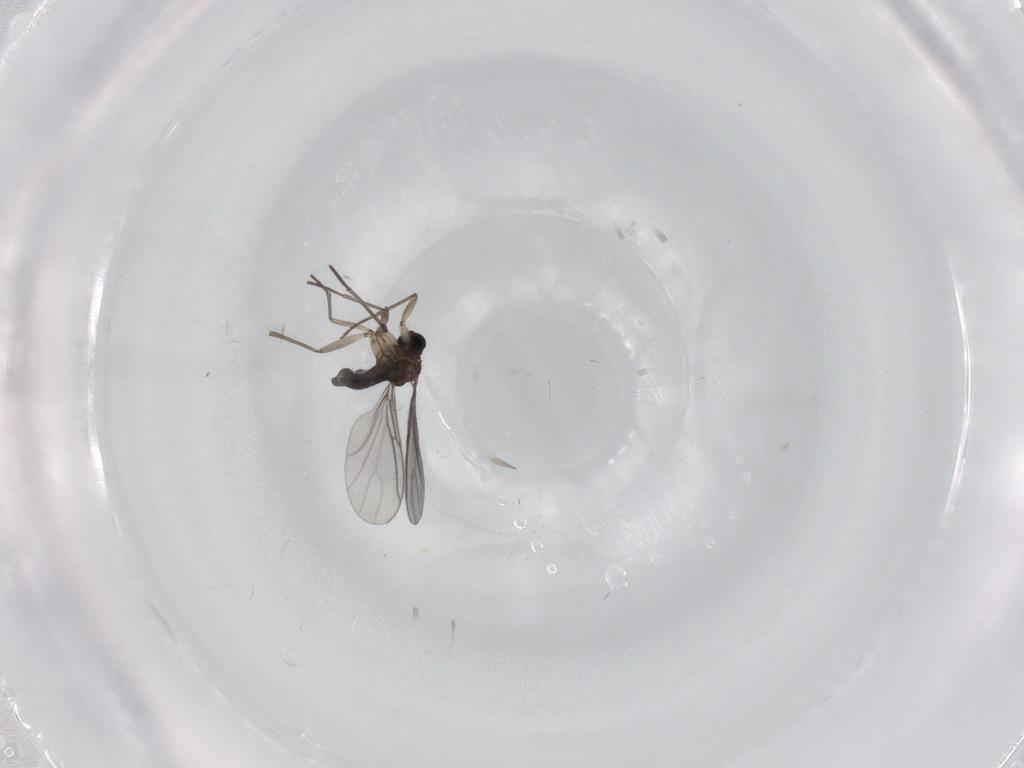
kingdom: Animalia
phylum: Arthropoda
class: Insecta
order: Diptera
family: Sciaridae
